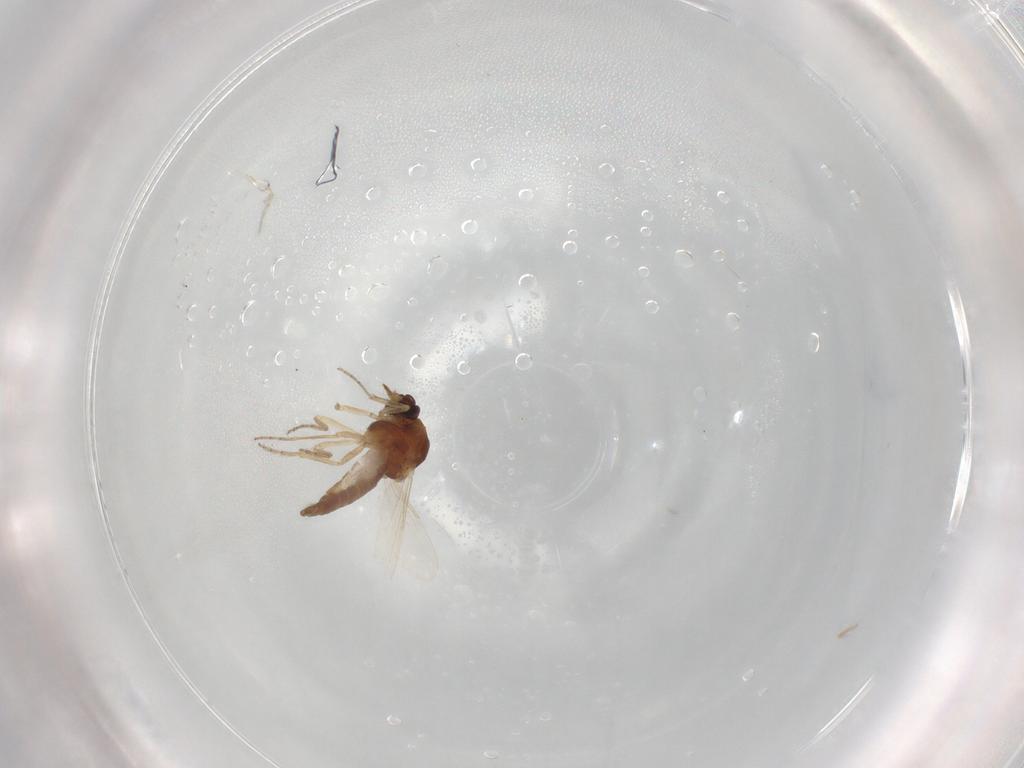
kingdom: Animalia
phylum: Arthropoda
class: Insecta
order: Diptera
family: Ceratopogonidae
